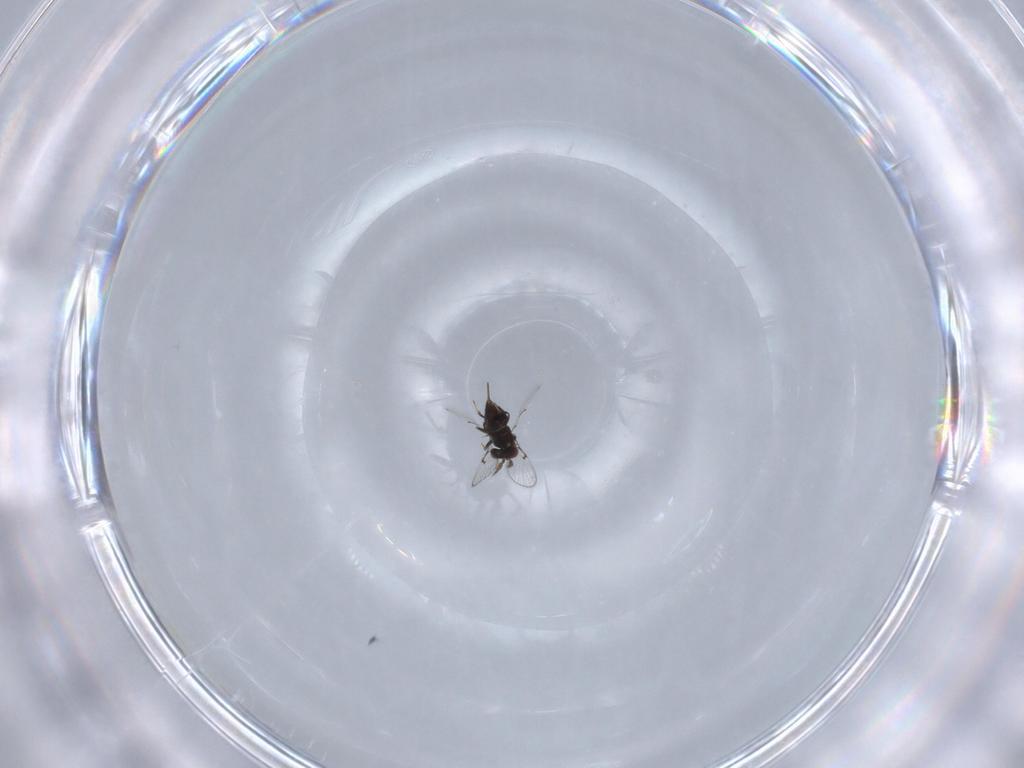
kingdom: Animalia
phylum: Arthropoda
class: Insecta
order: Hymenoptera
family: Trichogrammatidae
